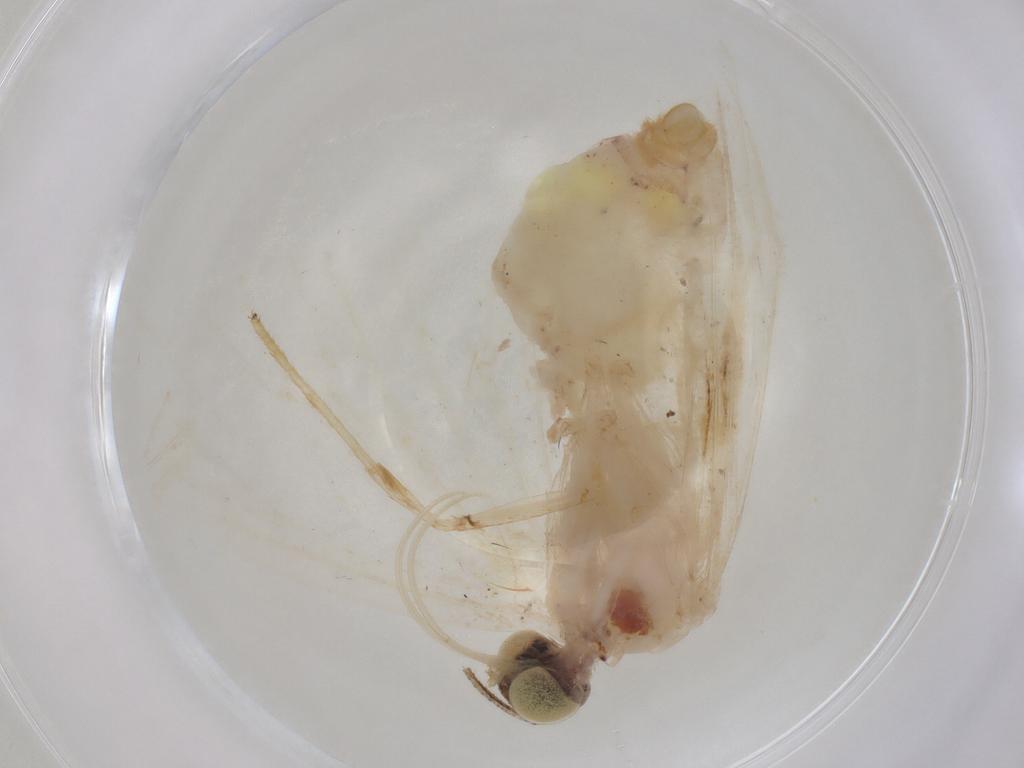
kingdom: Animalia
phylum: Arthropoda
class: Insecta
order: Lepidoptera
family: Geometridae
